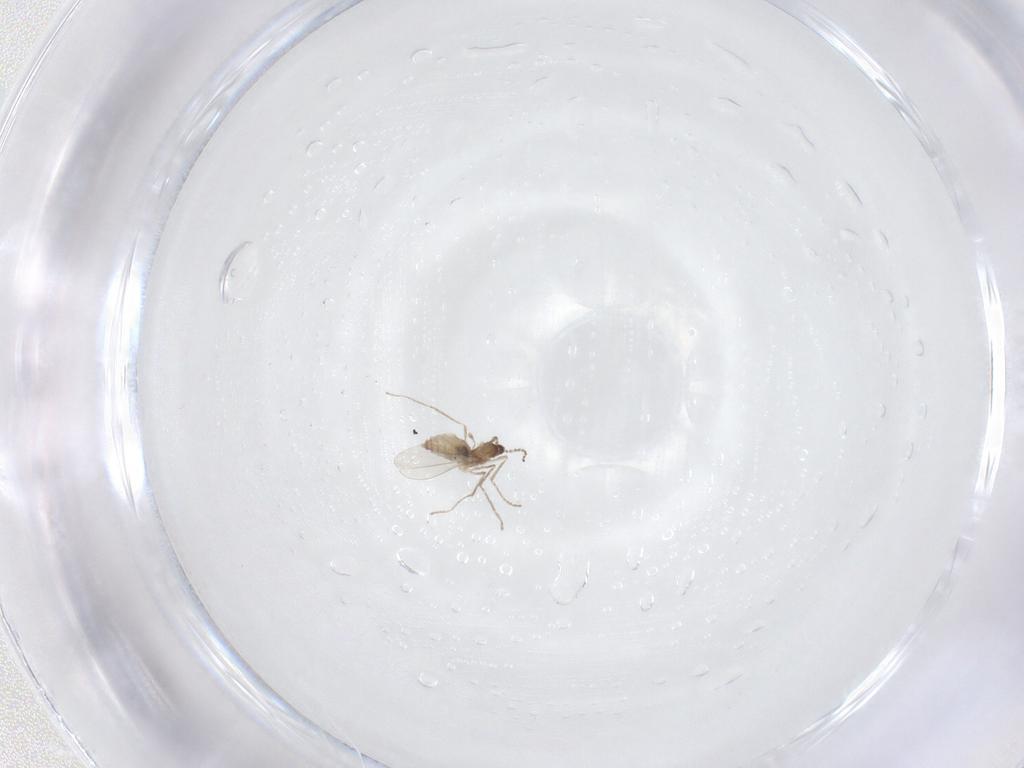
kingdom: Animalia
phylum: Arthropoda
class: Insecta
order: Diptera
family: Cecidomyiidae
